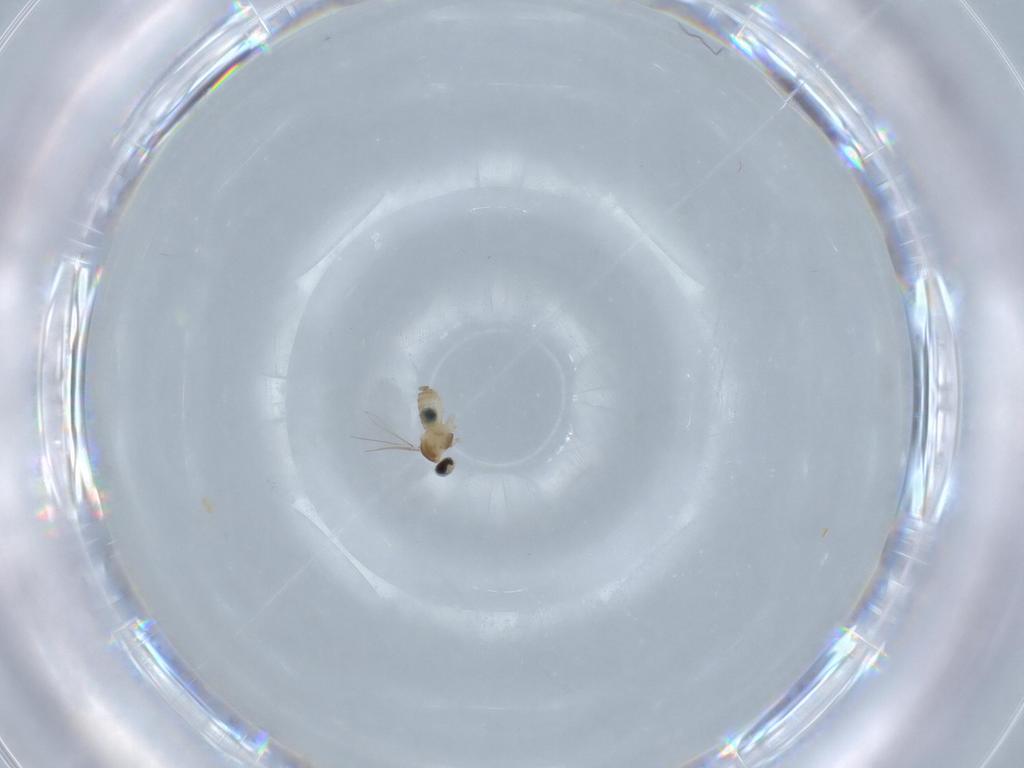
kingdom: Animalia
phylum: Arthropoda
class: Insecta
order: Diptera
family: Cecidomyiidae
